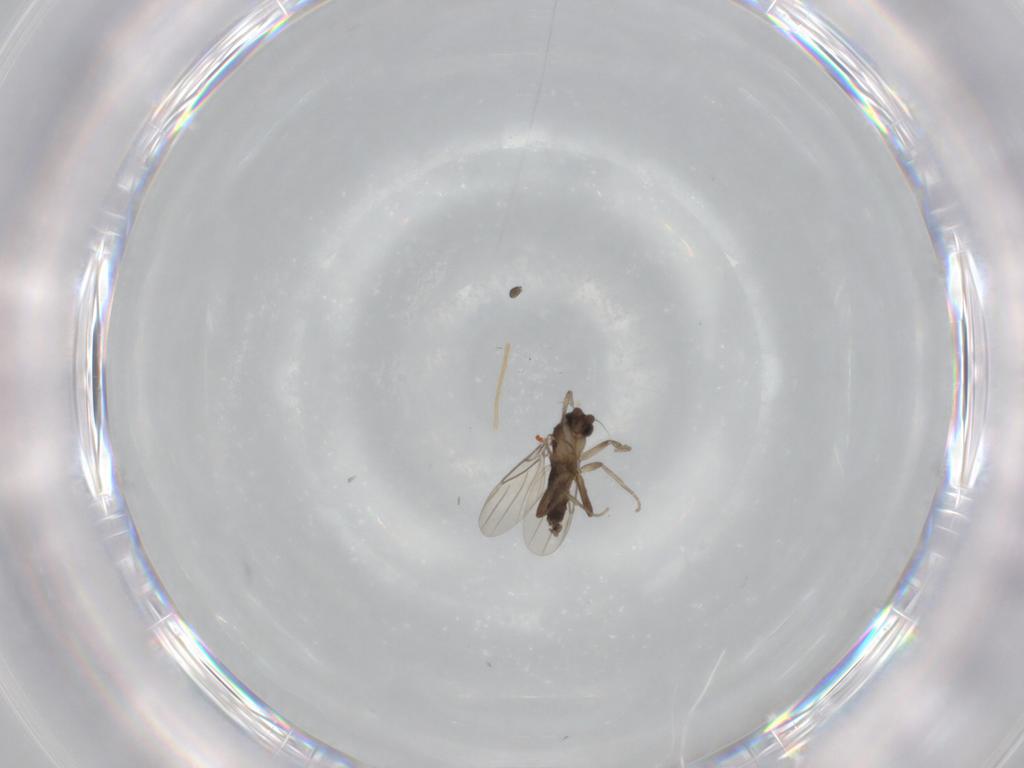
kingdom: Animalia
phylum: Arthropoda
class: Insecta
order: Diptera
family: Phoridae
